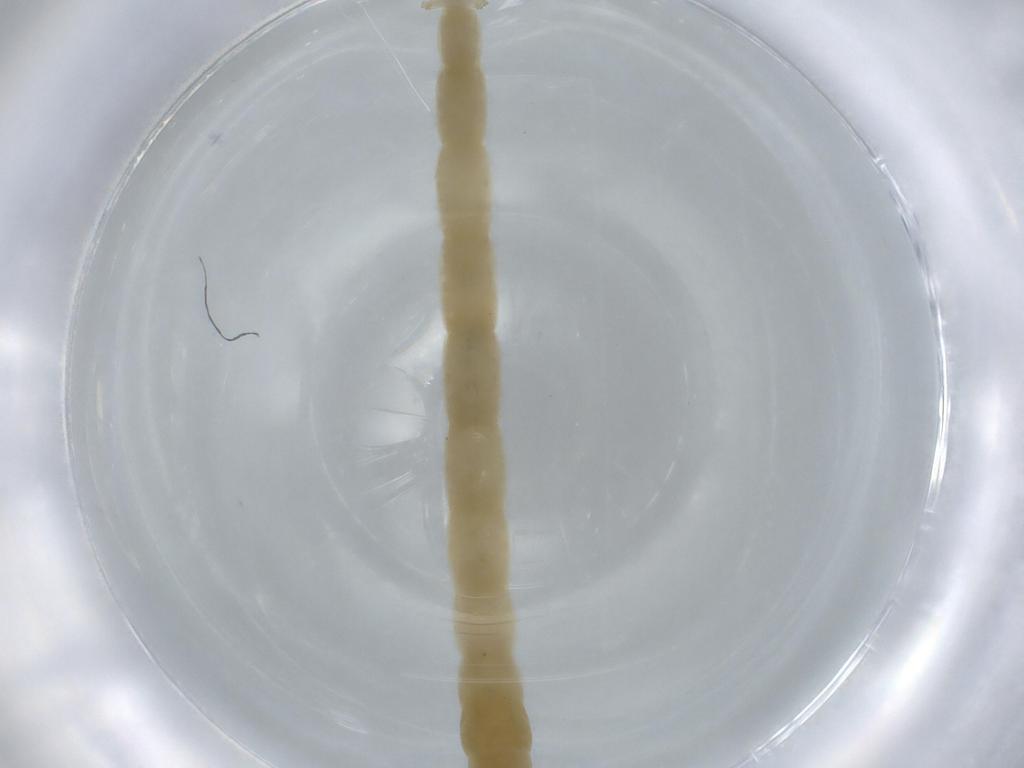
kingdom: Animalia
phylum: Arthropoda
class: Insecta
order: Diptera
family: Chironomidae
